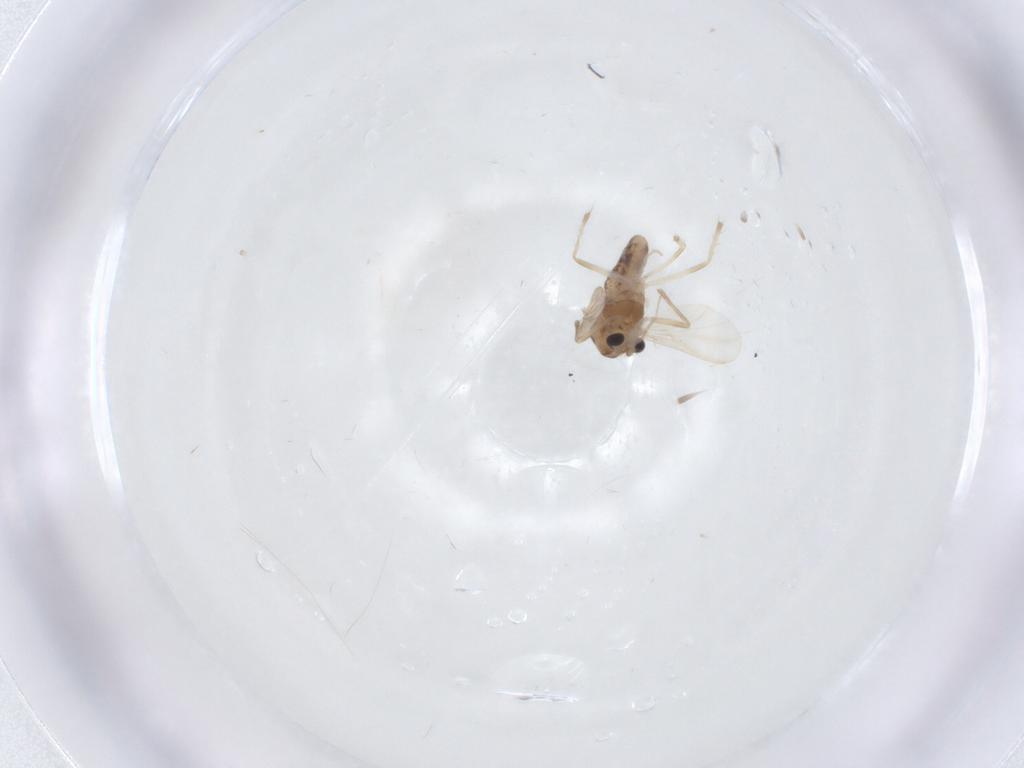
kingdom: Animalia
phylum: Arthropoda
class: Insecta
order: Diptera
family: Chironomidae
